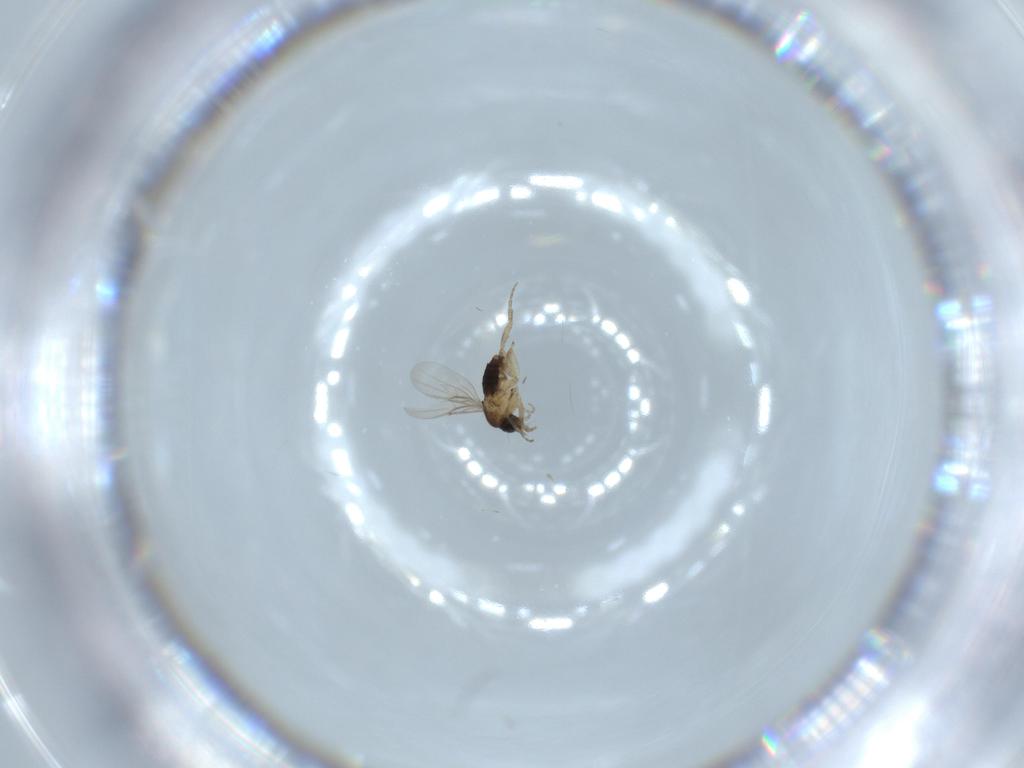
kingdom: Animalia
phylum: Arthropoda
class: Insecta
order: Diptera
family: Phoridae
